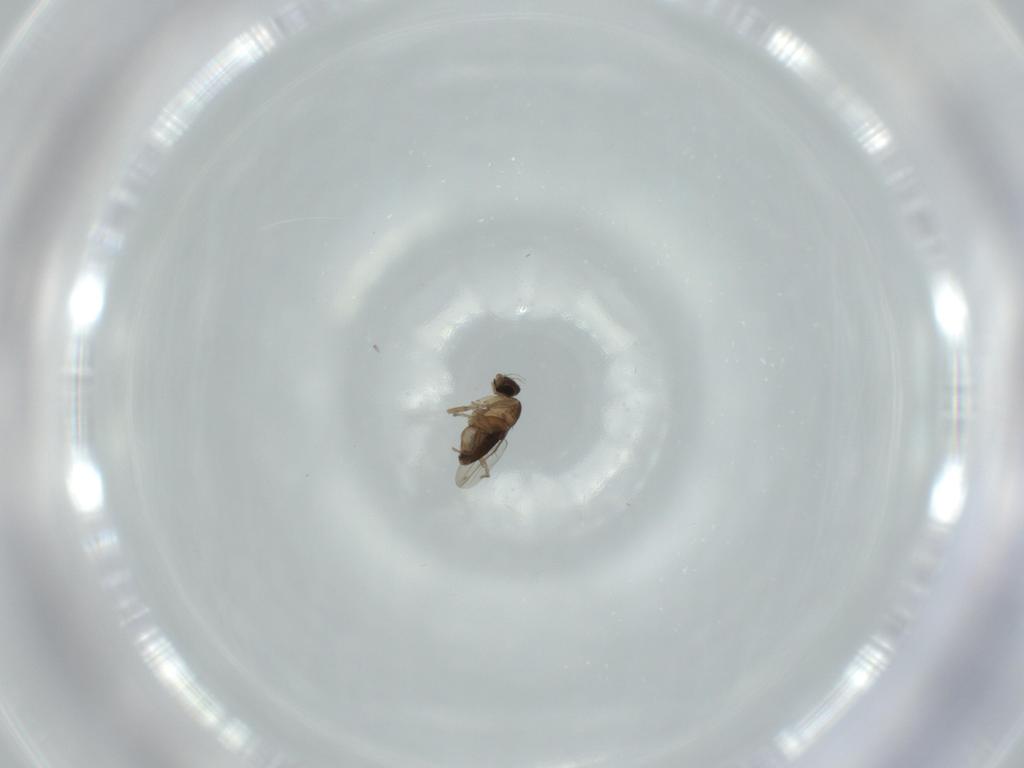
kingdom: Animalia
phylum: Arthropoda
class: Insecta
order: Diptera
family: Phoridae
